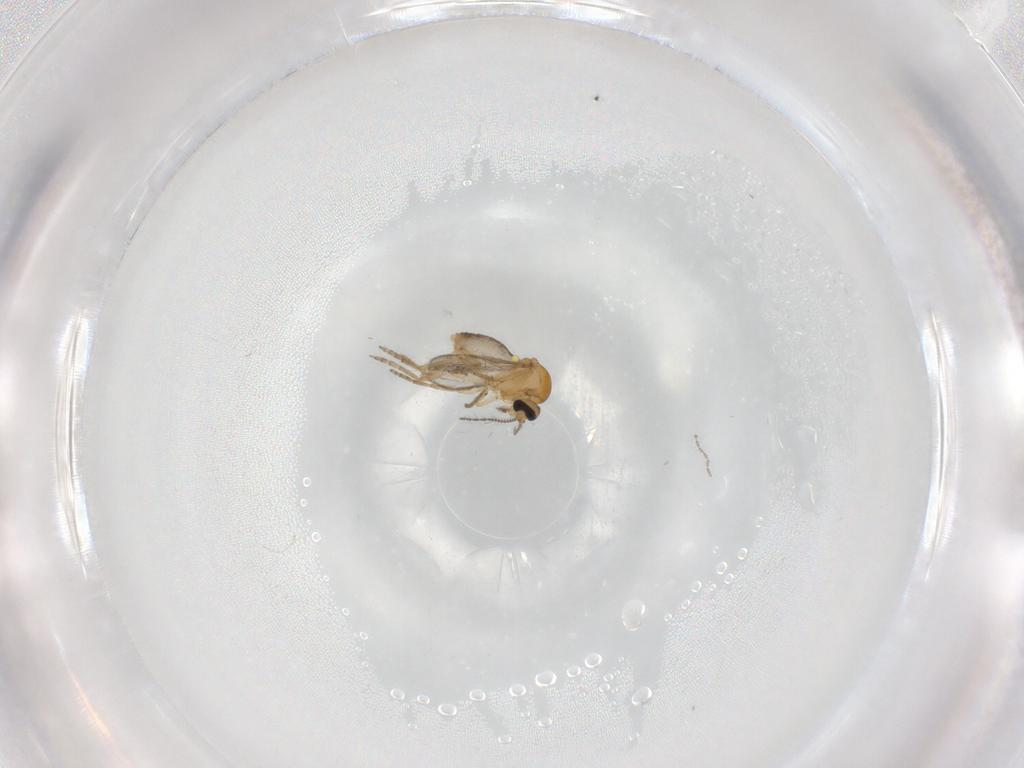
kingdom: Animalia
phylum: Arthropoda
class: Insecta
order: Diptera
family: Ceratopogonidae
